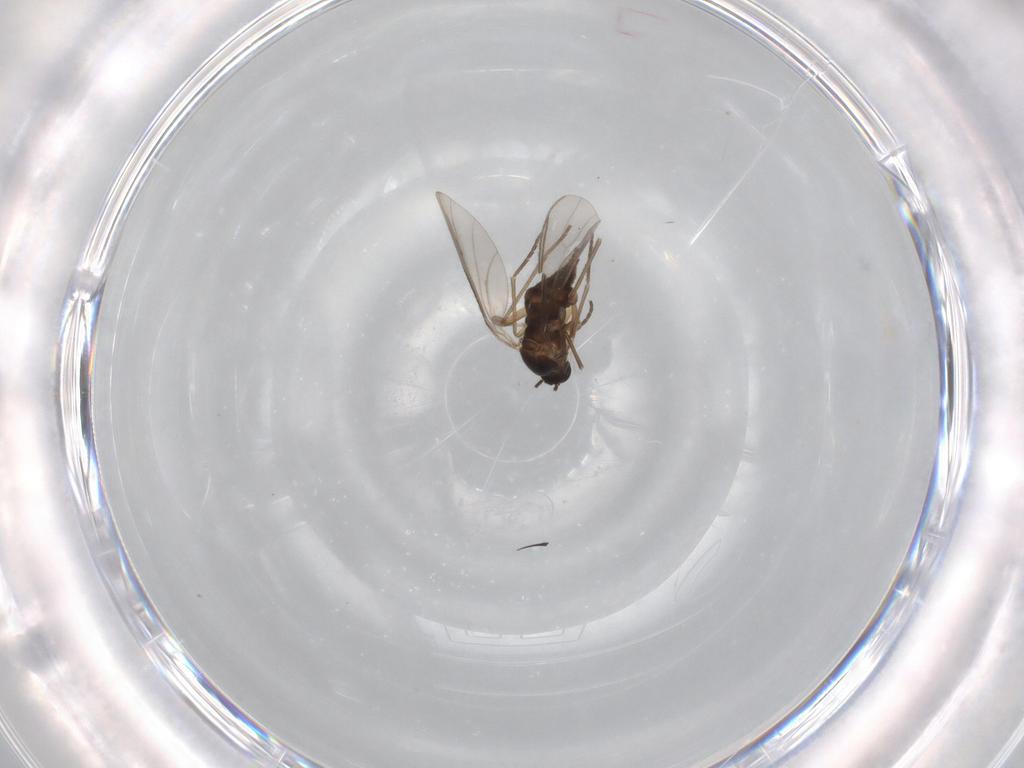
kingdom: Animalia
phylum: Arthropoda
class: Insecta
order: Diptera
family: Sciaridae
